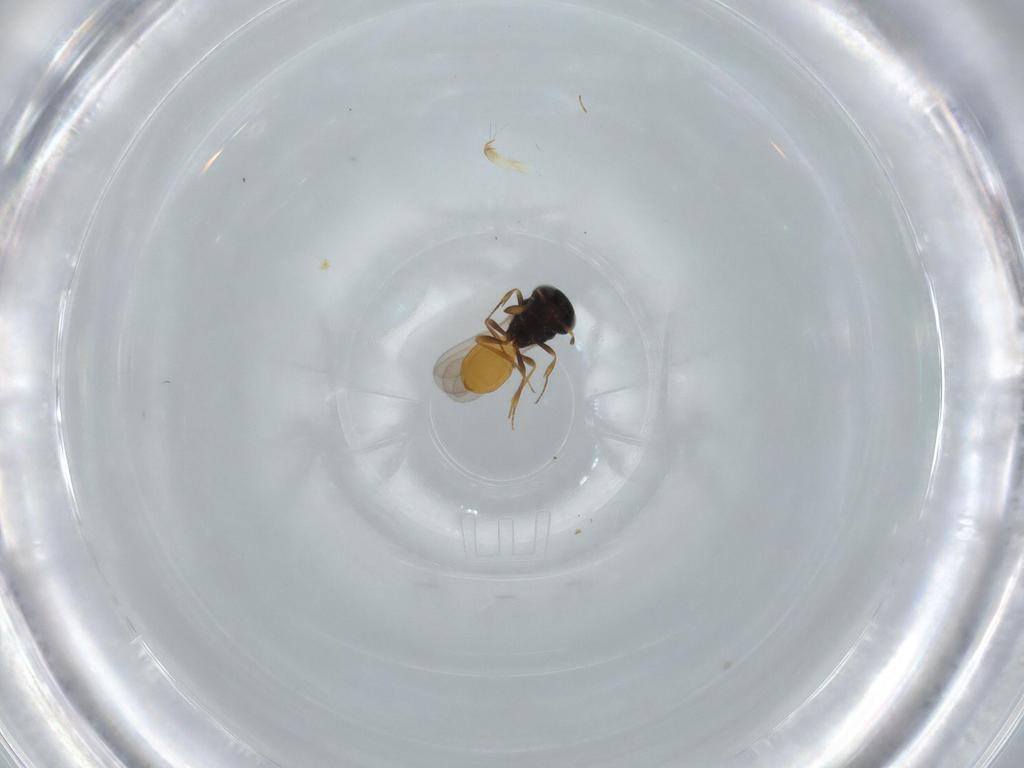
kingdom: Animalia
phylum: Arthropoda
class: Insecta
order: Hymenoptera
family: Scelionidae
